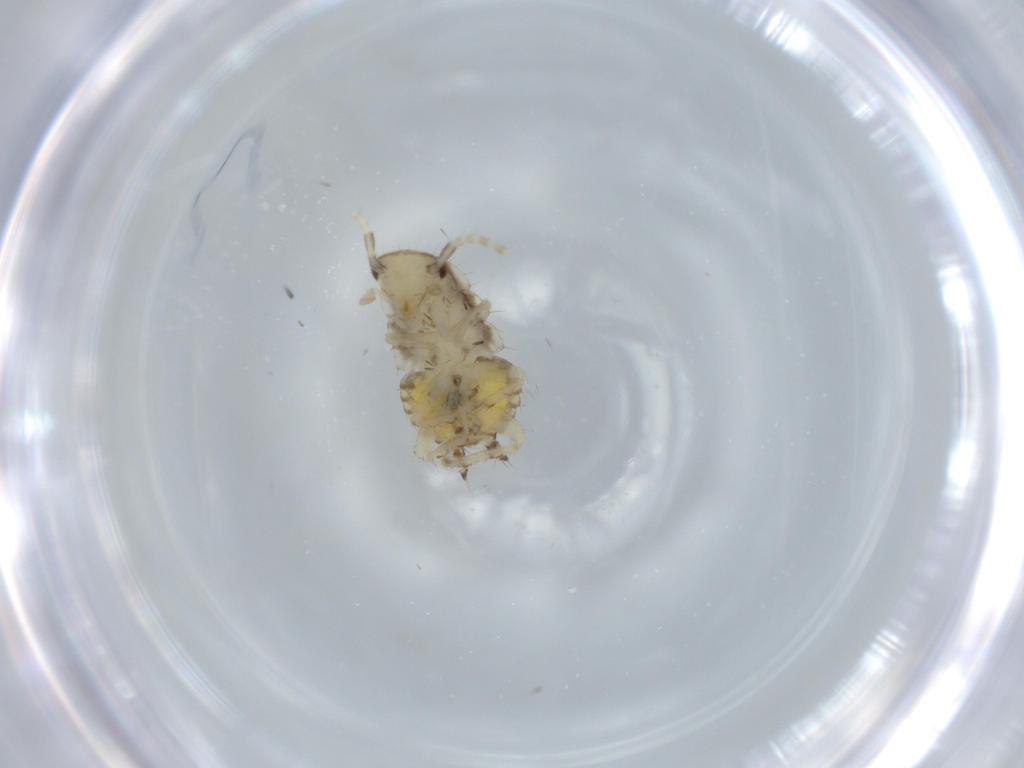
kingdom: Animalia
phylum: Arthropoda
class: Insecta
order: Blattodea
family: Ectobiidae
